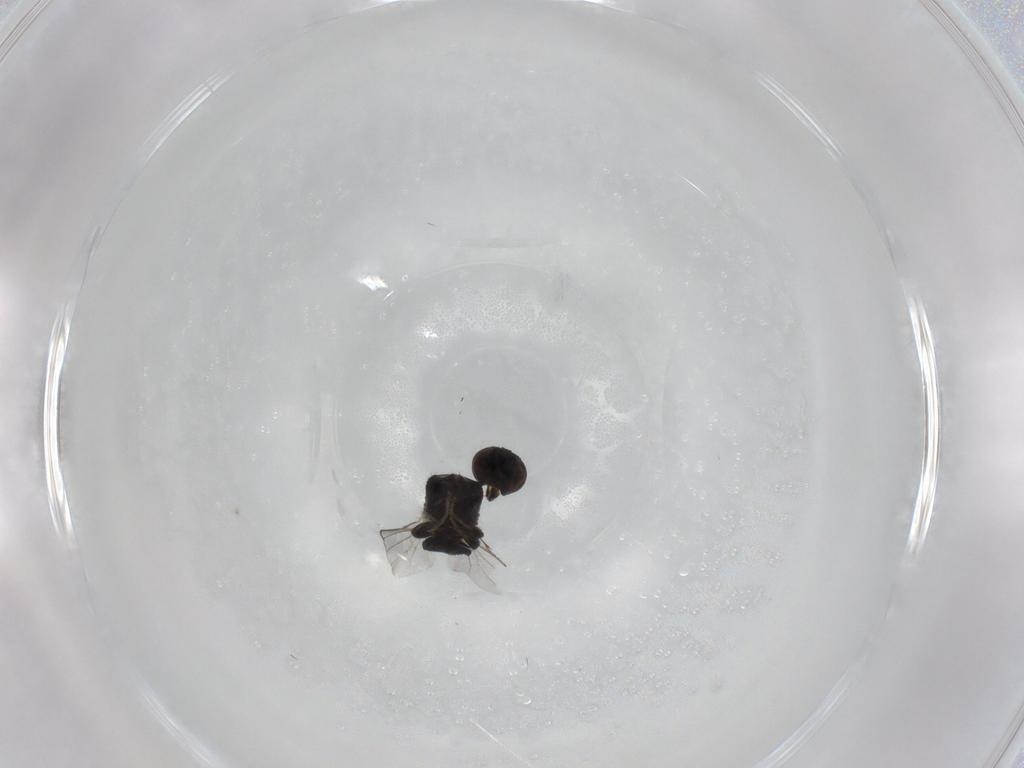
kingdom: Animalia
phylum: Arthropoda
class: Insecta
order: Diptera
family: Milichiidae
